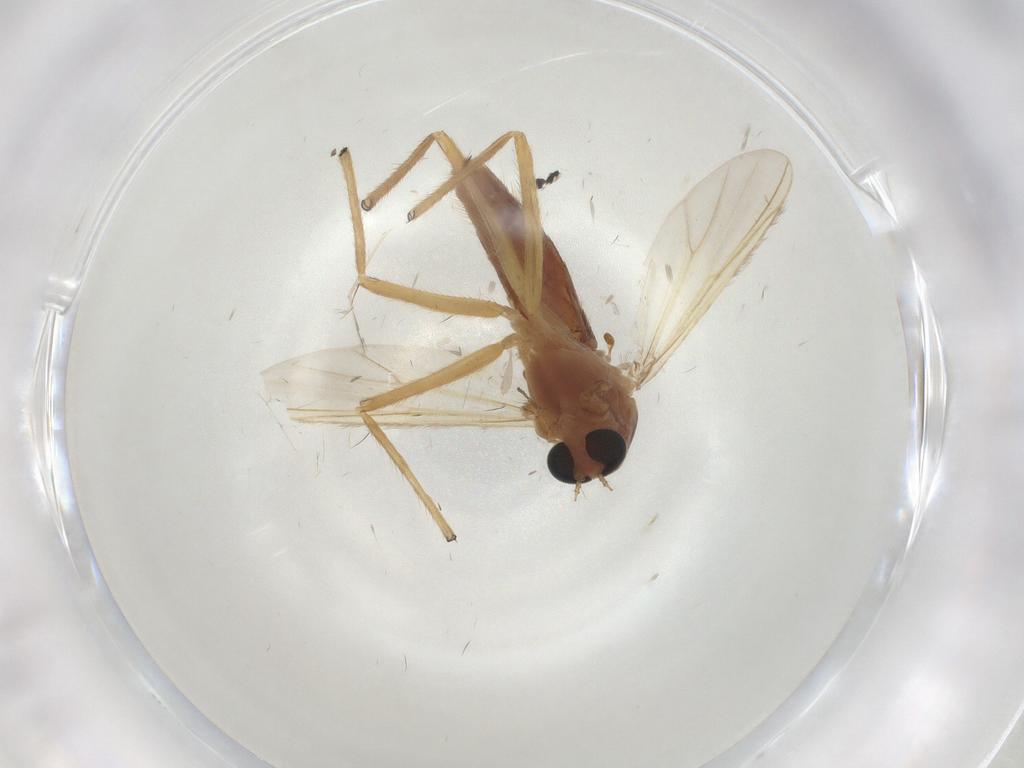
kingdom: Animalia
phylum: Arthropoda
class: Insecta
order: Diptera
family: Chironomidae
